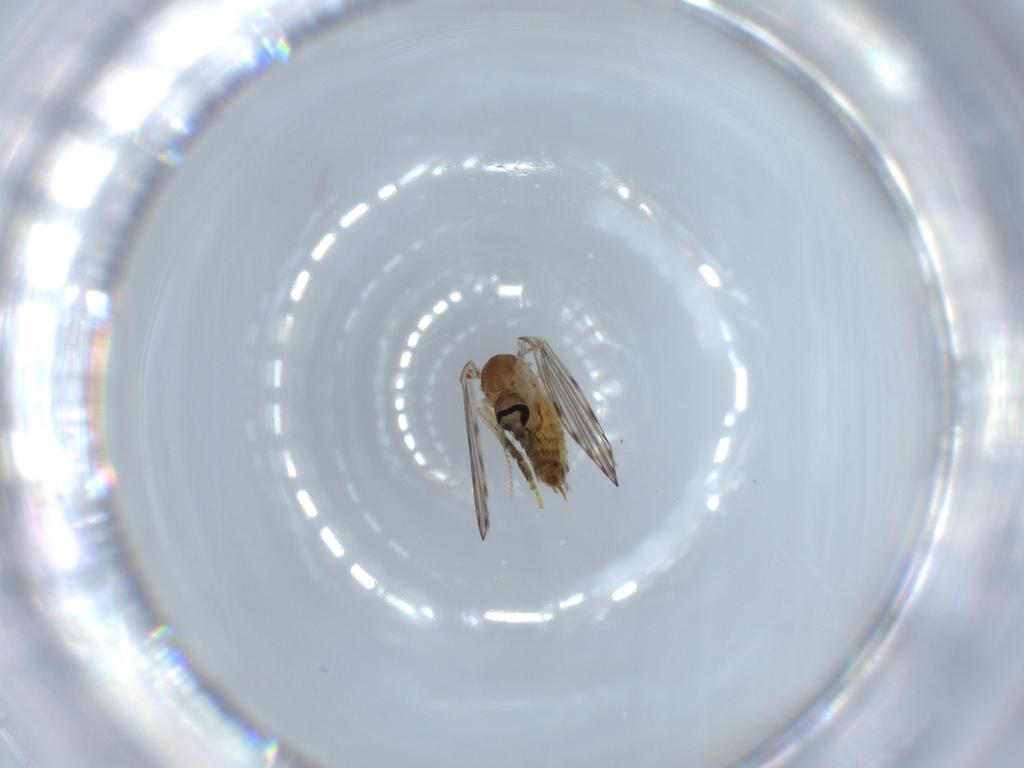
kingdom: Animalia
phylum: Arthropoda
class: Insecta
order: Diptera
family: Psychodidae
